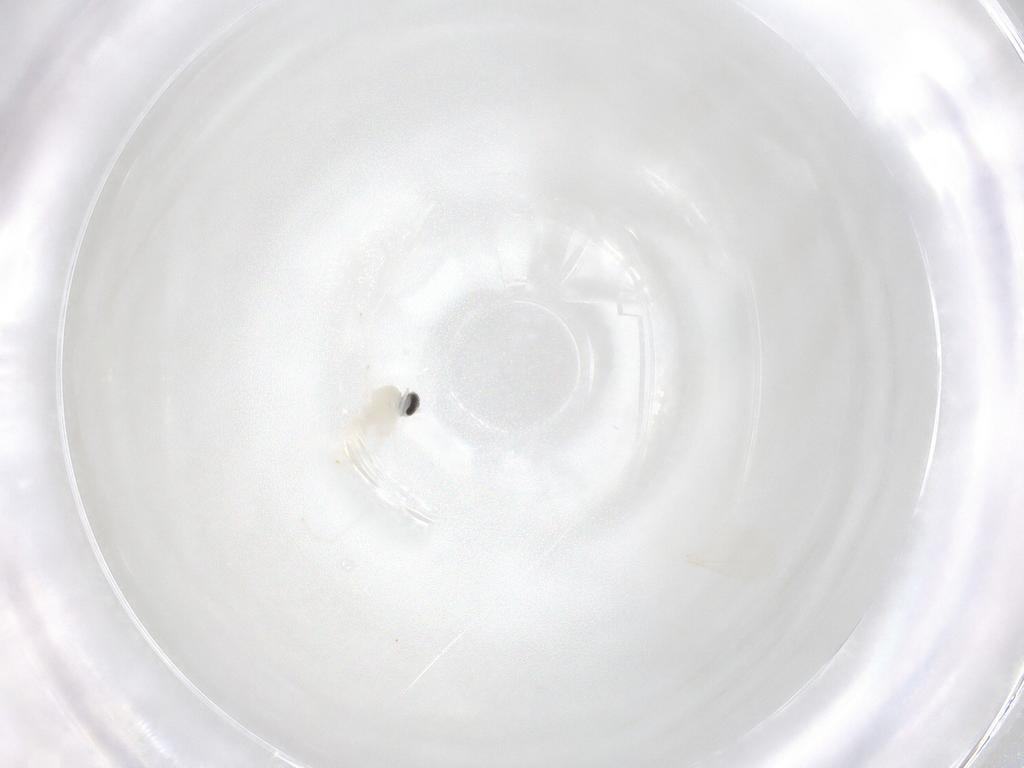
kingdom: Animalia
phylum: Arthropoda
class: Insecta
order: Diptera
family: Cecidomyiidae
